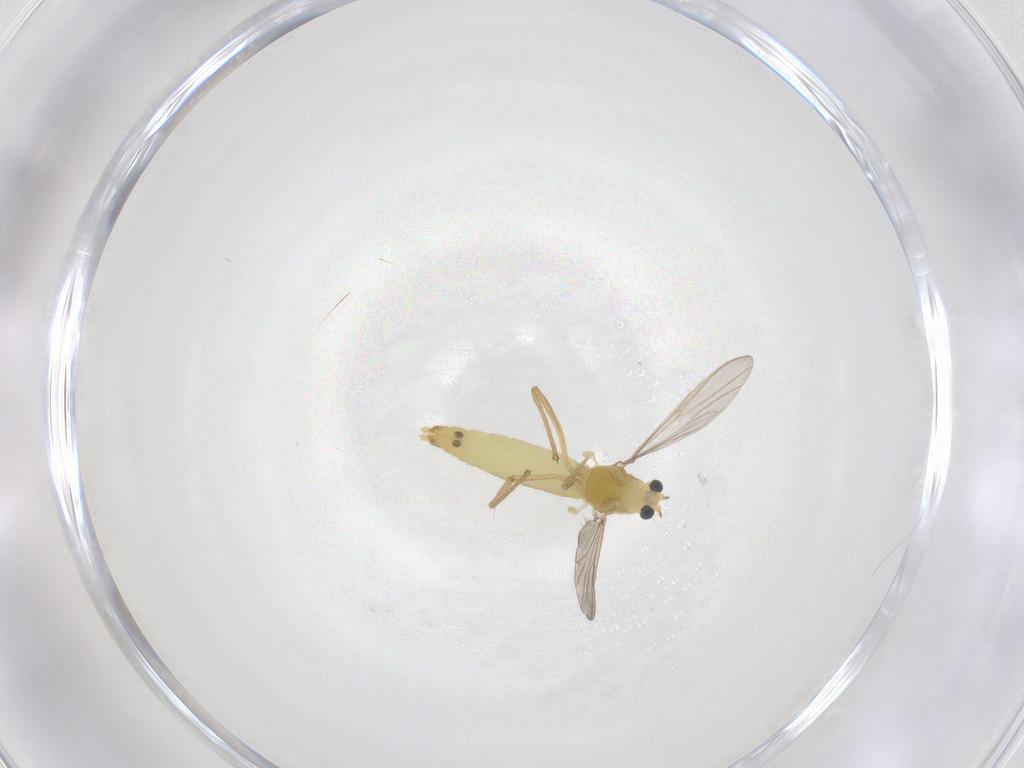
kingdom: Animalia
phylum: Arthropoda
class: Insecta
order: Diptera
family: Chironomidae
